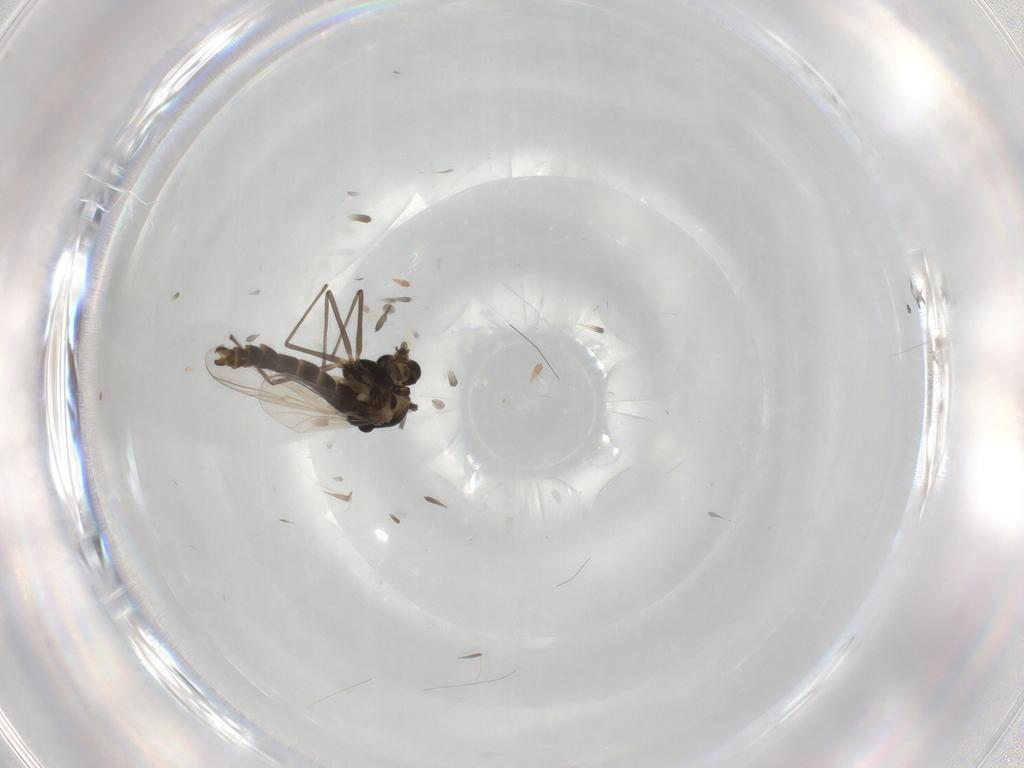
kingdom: Animalia
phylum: Arthropoda
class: Insecta
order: Diptera
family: Chironomidae
